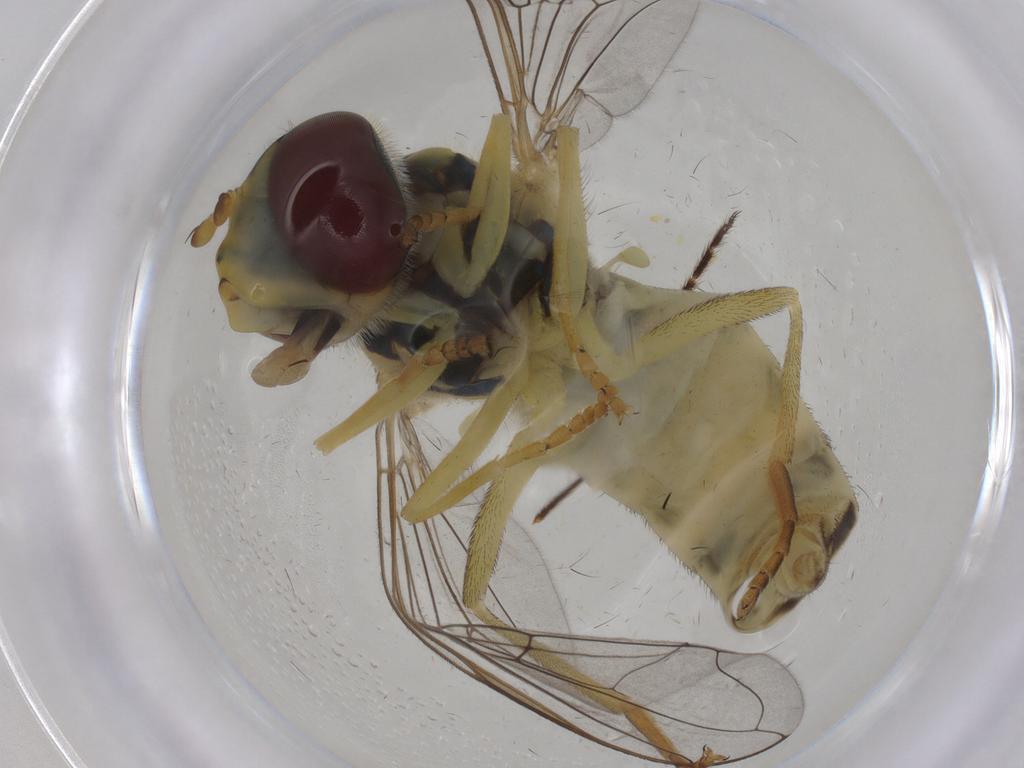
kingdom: Animalia
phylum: Arthropoda
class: Insecta
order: Diptera
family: Syrphidae
